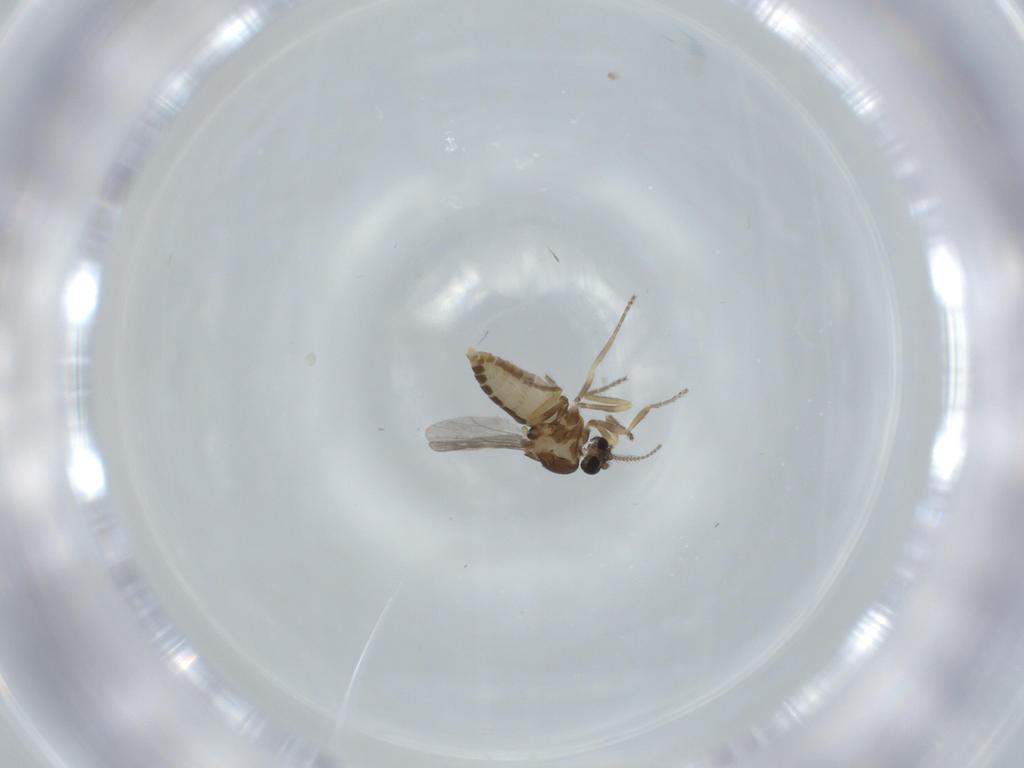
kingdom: Animalia
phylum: Arthropoda
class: Insecta
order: Diptera
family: Ceratopogonidae
